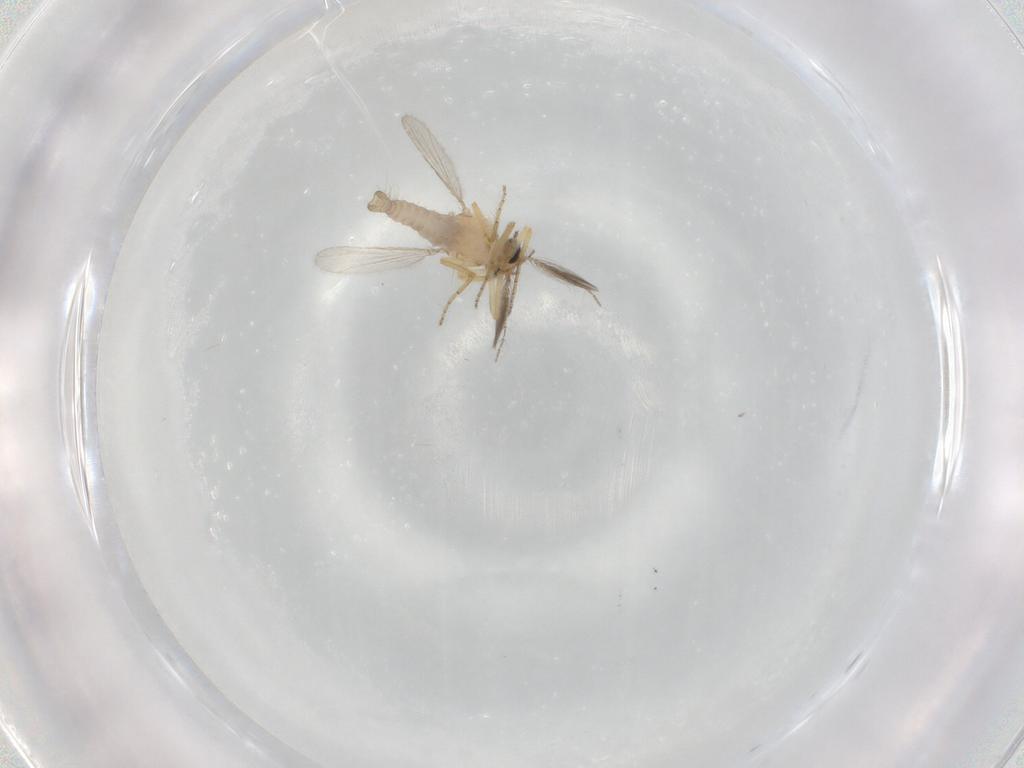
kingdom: Animalia
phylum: Arthropoda
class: Insecta
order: Diptera
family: Ceratopogonidae
